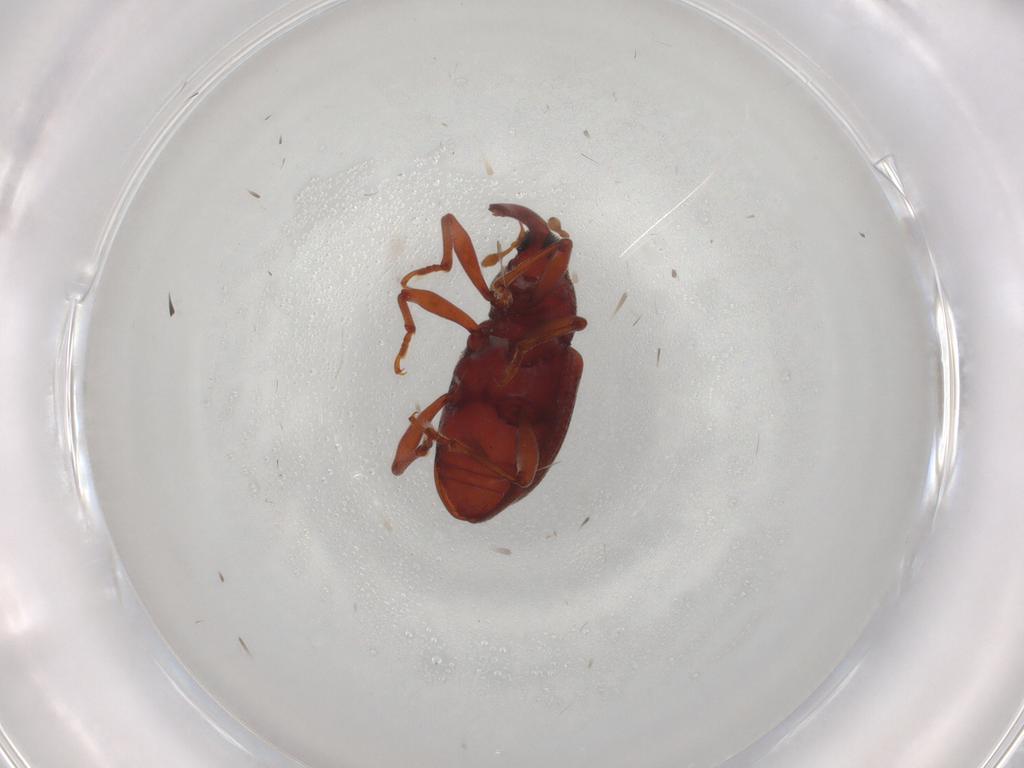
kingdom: Animalia
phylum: Arthropoda
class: Insecta
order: Coleoptera
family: Curculionidae
